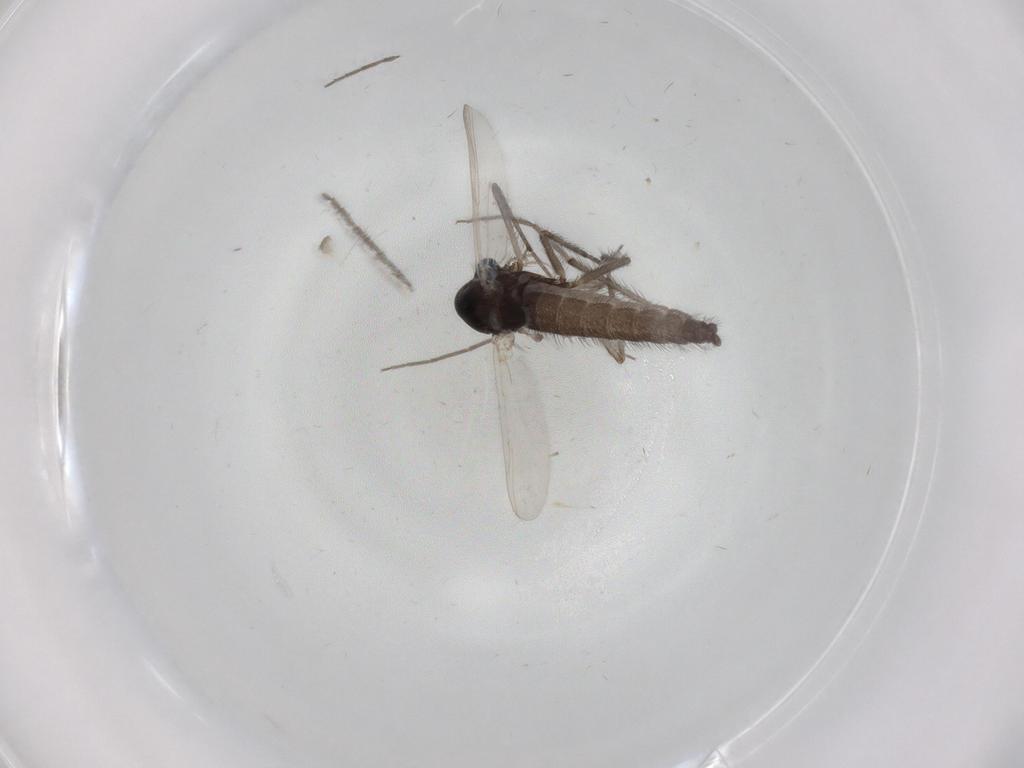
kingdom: Animalia
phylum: Arthropoda
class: Insecta
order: Diptera
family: Chironomidae
